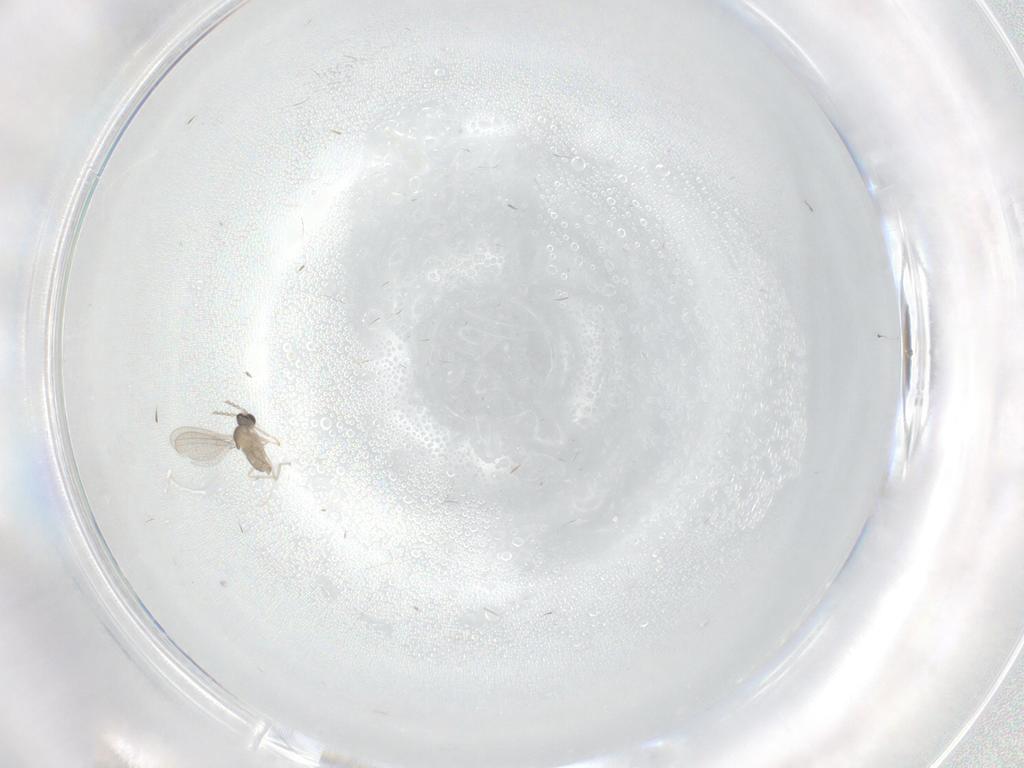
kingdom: Animalia
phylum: Arthropoda
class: Insecta
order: Diptera
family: Cecidomyiidae
